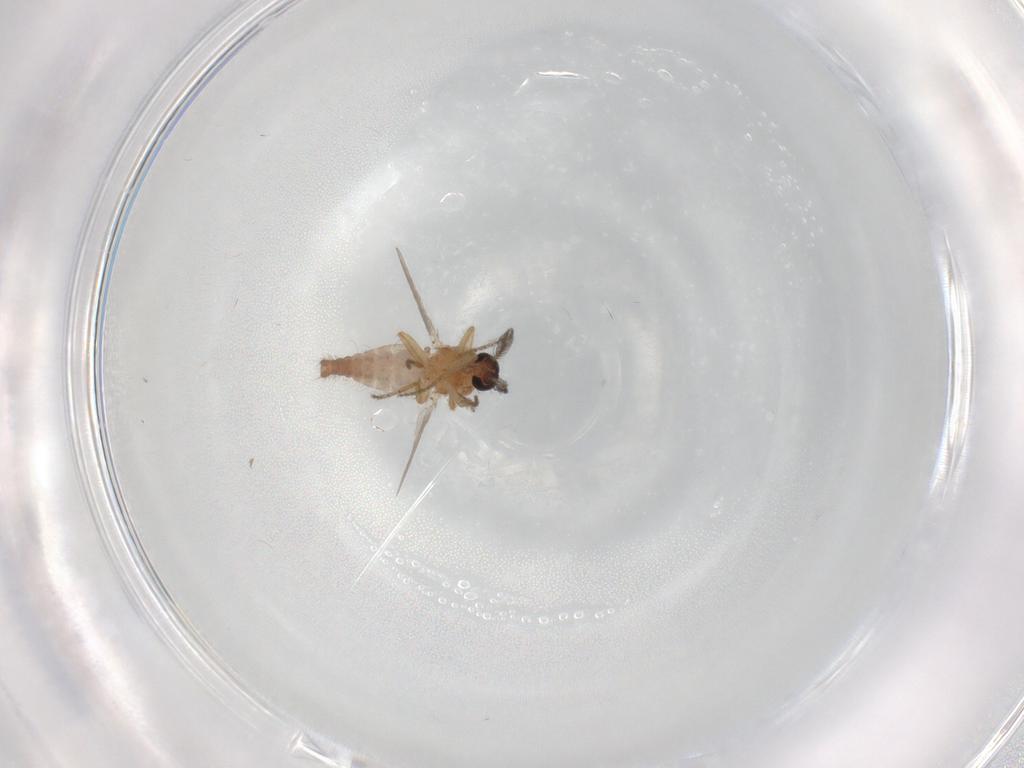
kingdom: Animalia
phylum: Arthropoda
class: Insecta
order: Diptera
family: Ceratopogonidae
